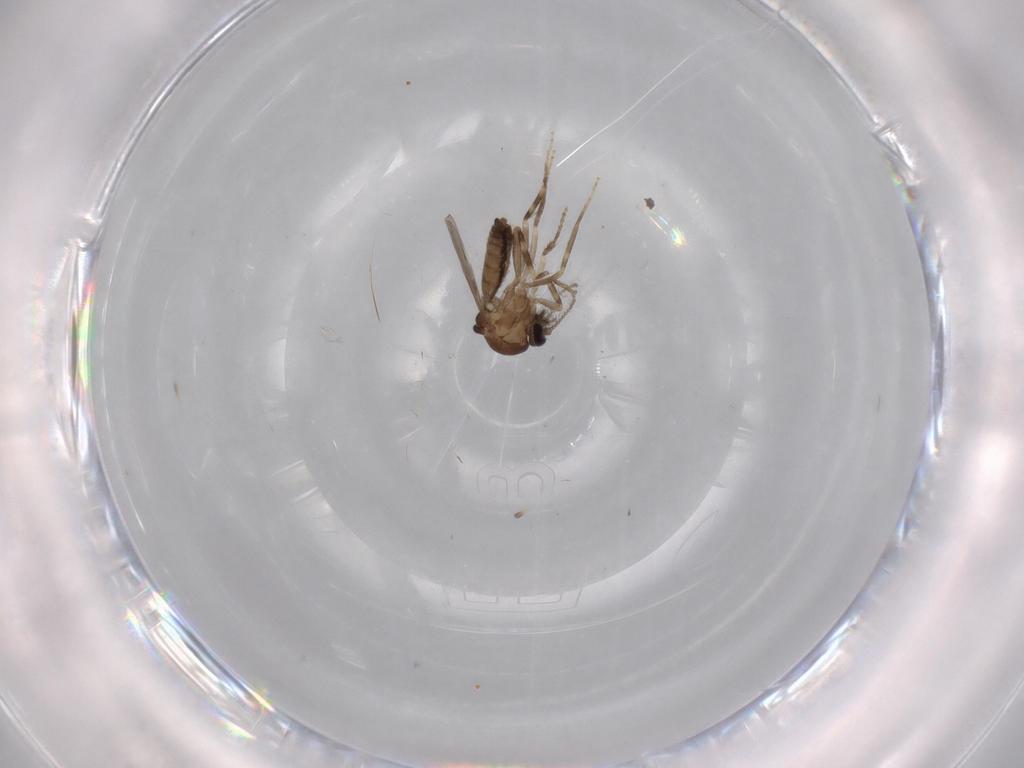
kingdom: Animalia
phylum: Arthropoda
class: Insecta
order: Diptera
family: Ceratopogonidae
